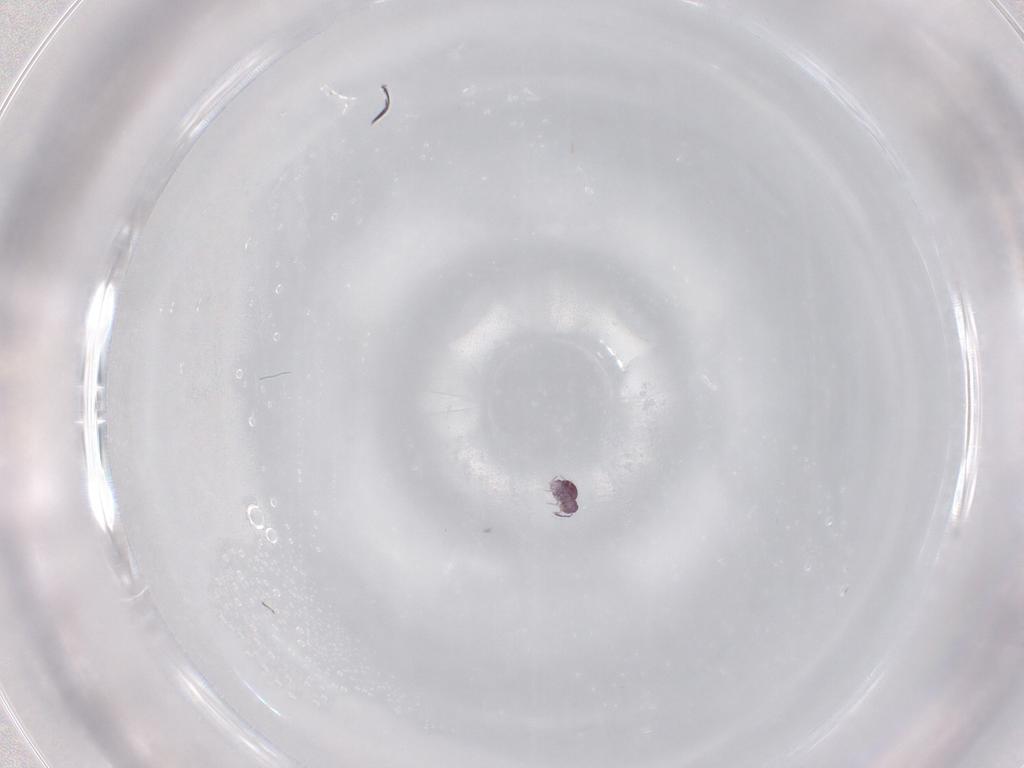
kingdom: Animalia
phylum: Arthropoda
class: Collembola
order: Symphypleona
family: Sminthurididae
